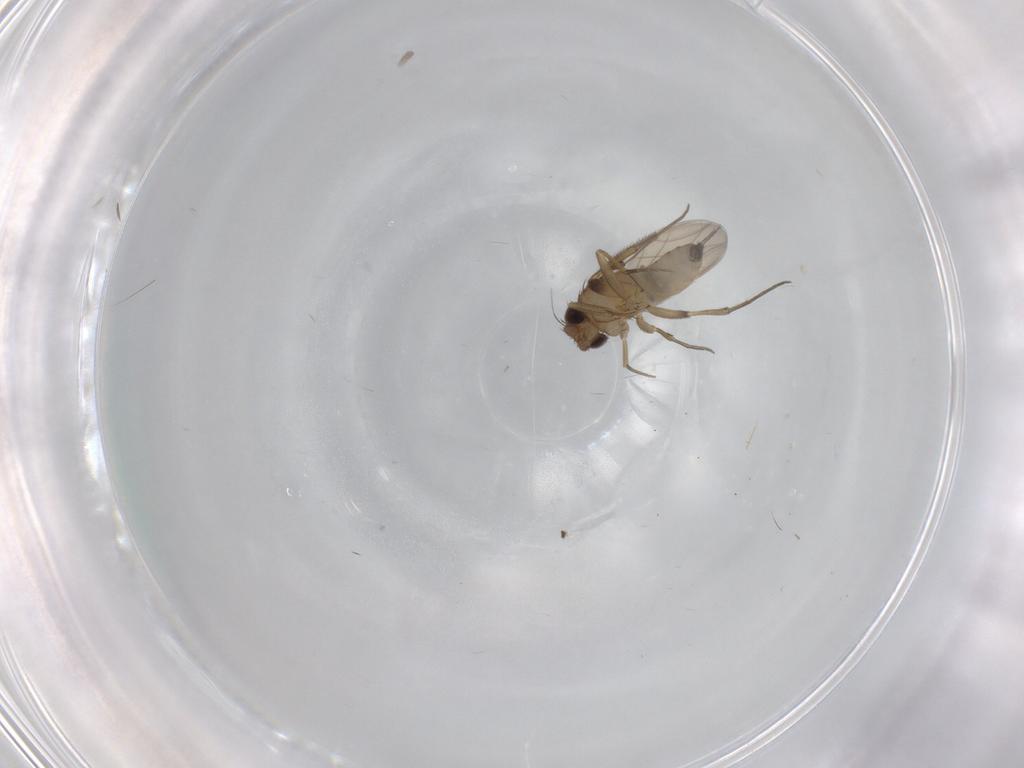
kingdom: Animalia
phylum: Arthropoda
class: Insecta
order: Diptera
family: Phoridae
